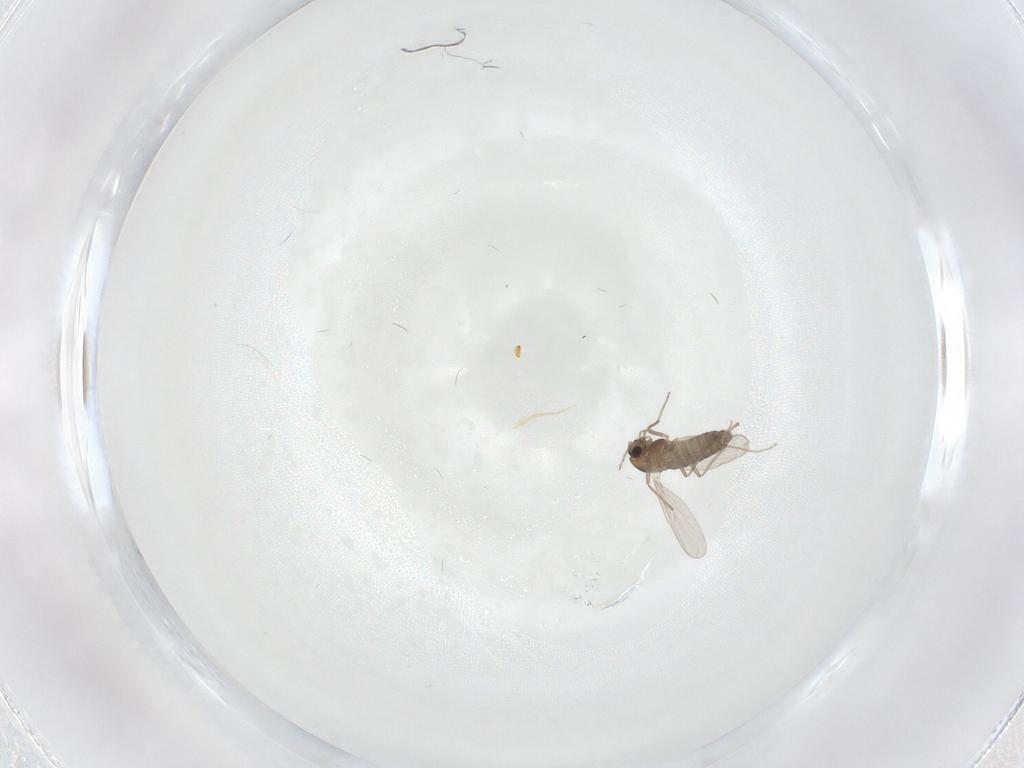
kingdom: Animalia
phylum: Arthropoda
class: Insecta
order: Diptera
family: Chironomidae
